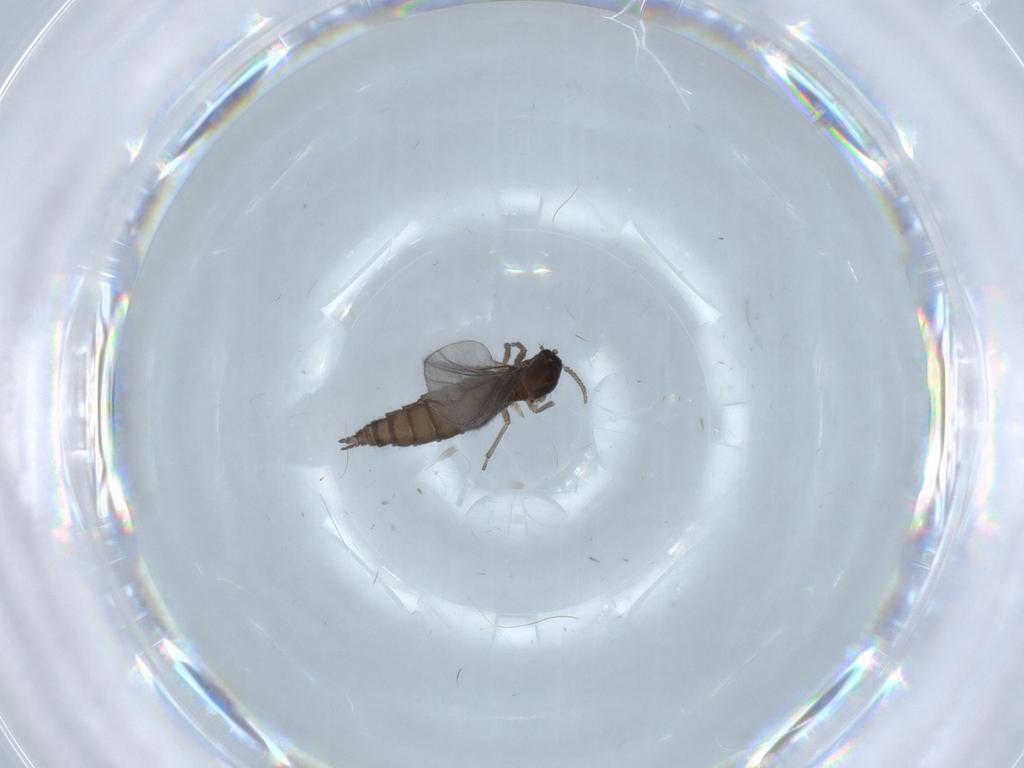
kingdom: Animalia
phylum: Arthropoda
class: Insecta
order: Diptera
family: Sciaridae
